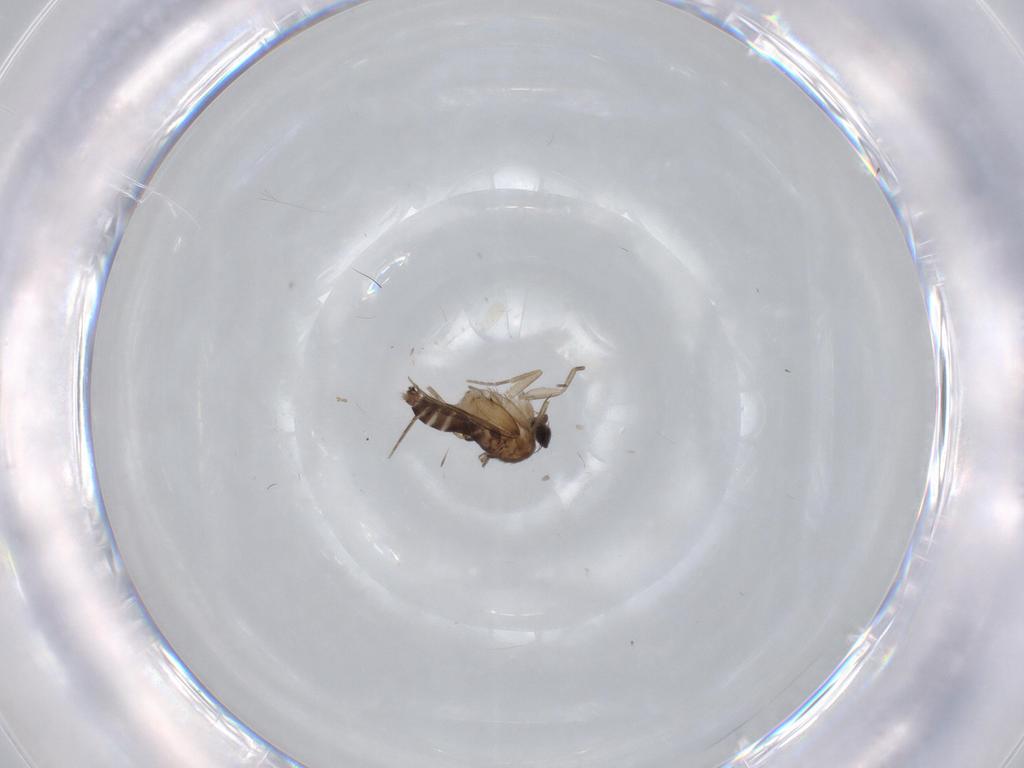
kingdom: Animalia
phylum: Arthropoda
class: Insecta
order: Diptera
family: Phoridae
